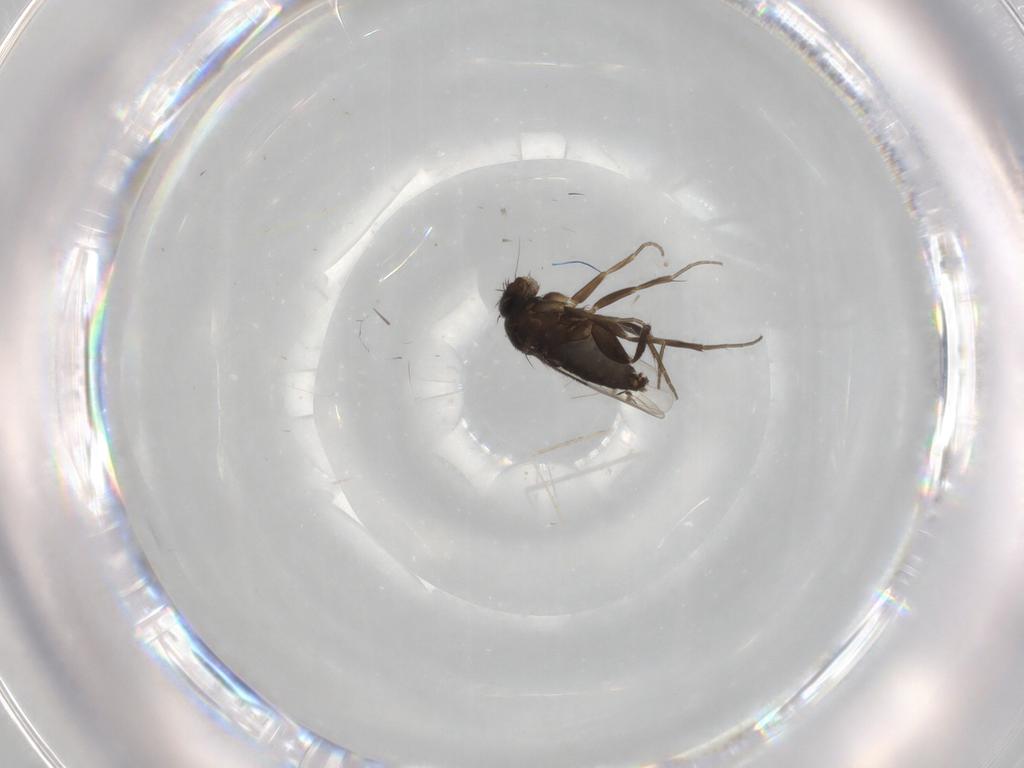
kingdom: Animalia
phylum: Arthropoda
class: Insecta
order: Diptera
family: Phoridae
